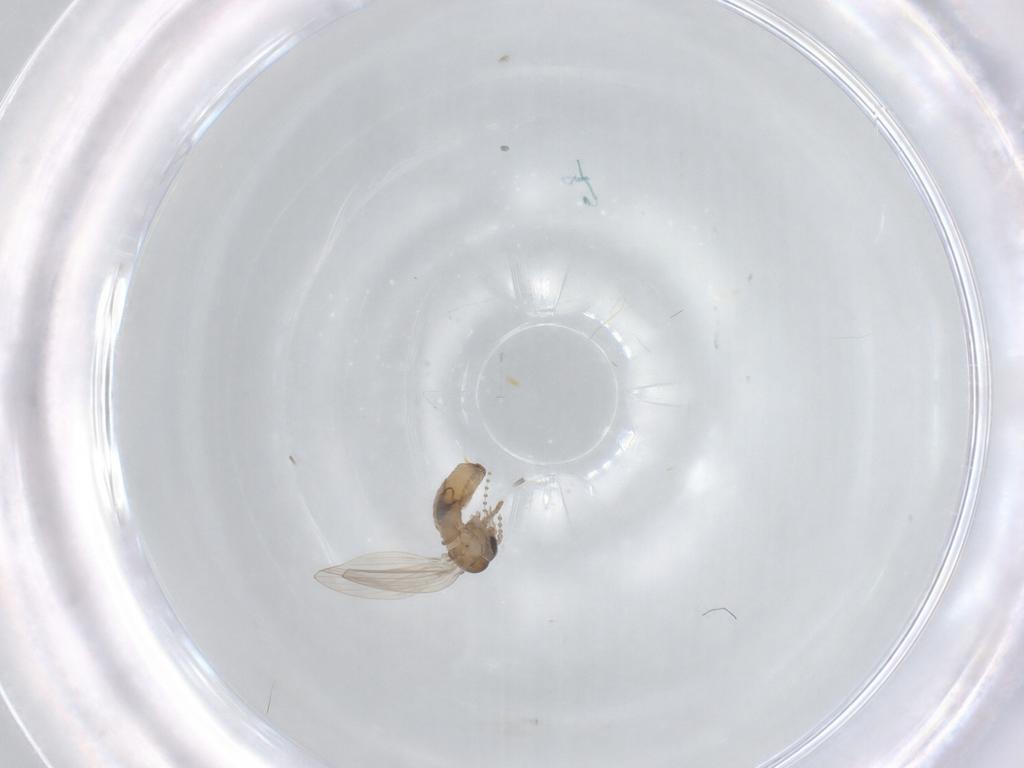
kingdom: Animalia
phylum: Arthropoda
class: Insecta
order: Diptera
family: Psychodidae
